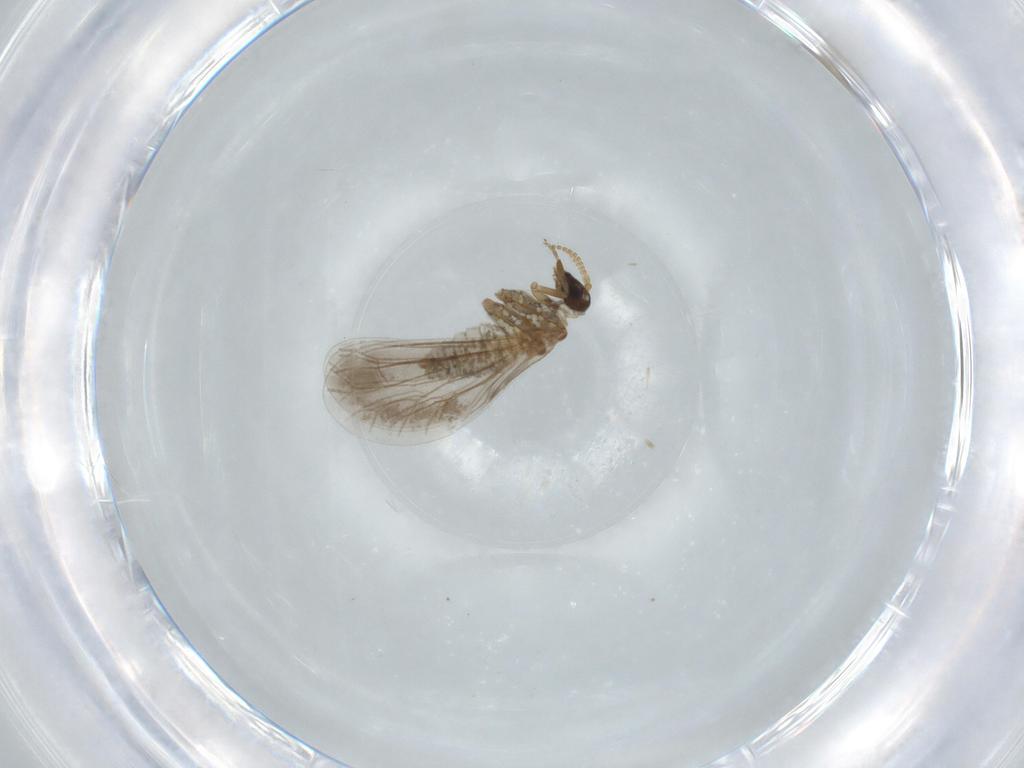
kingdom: Animalia
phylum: Arthropoda
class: Insecta
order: Neuroptera
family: Coniopterygidae
